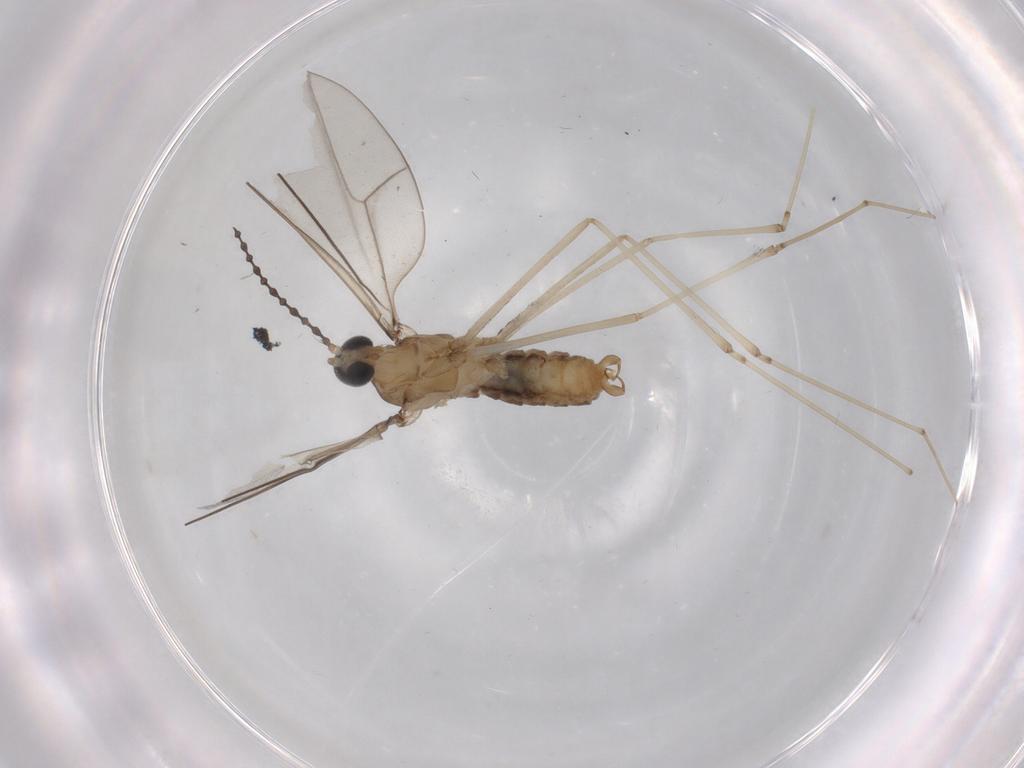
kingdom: Animalia
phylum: Arthropoda
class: Insecta
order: Diptera
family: Cecidomyiidae
